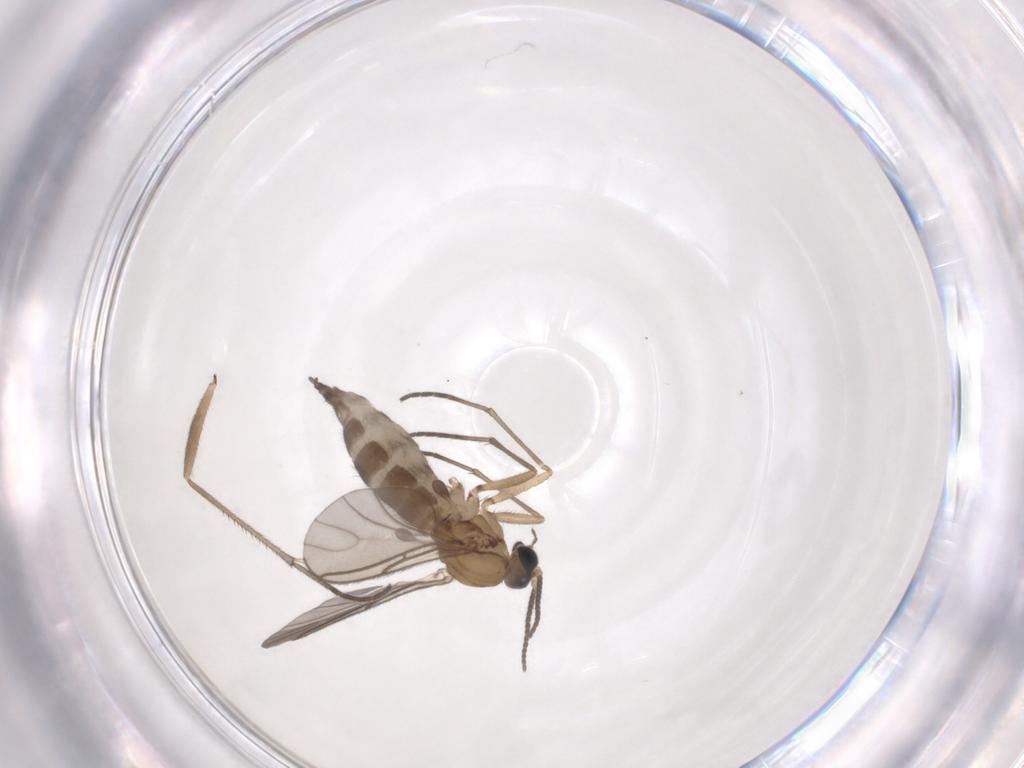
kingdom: Animalia
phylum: Arthropoda
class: Insecta
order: Diptera
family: Sciaridae
